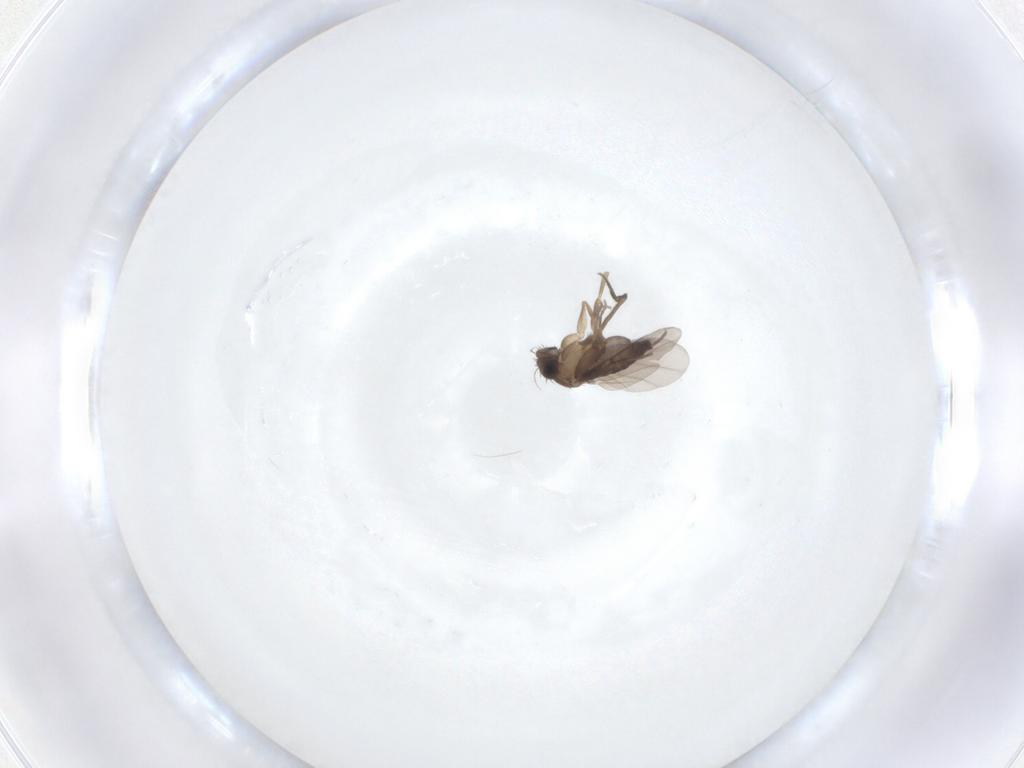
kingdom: Animalia
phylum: Arthropoda
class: Insecta
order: Diptera
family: Phoridae
